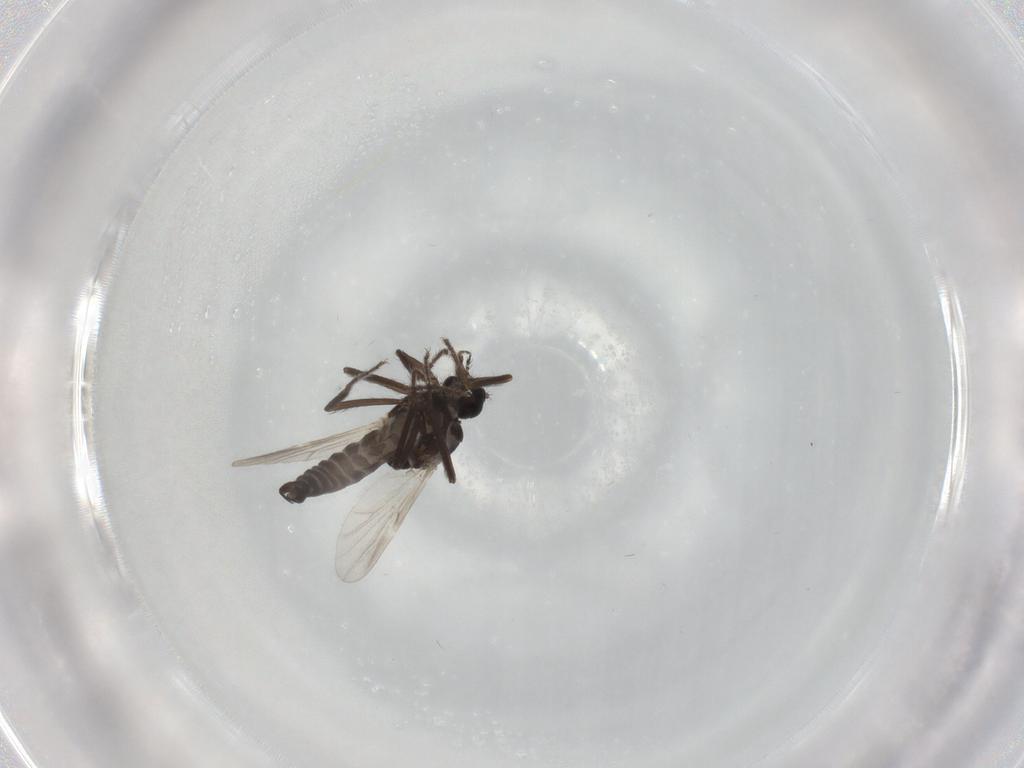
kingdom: Animalia
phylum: Arthropoda
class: Insecta
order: Diptera
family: Ceratopogonidae
